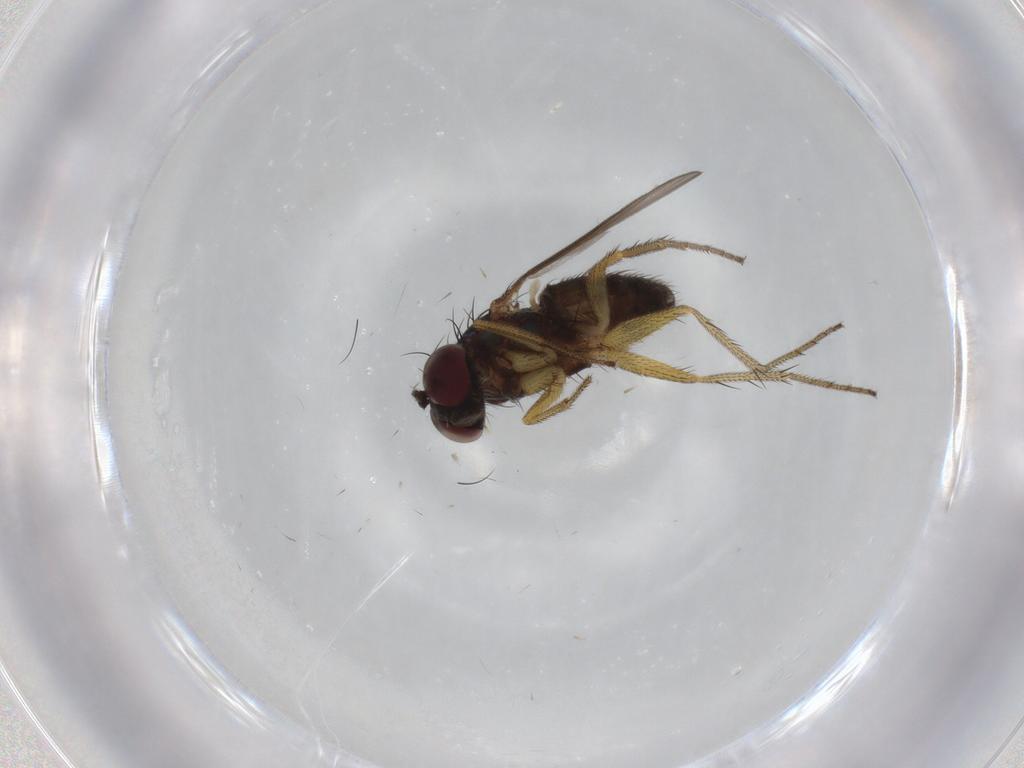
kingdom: Animalia
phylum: Arthropoda
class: Insecta
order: Diptera
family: Dolichopodidae
